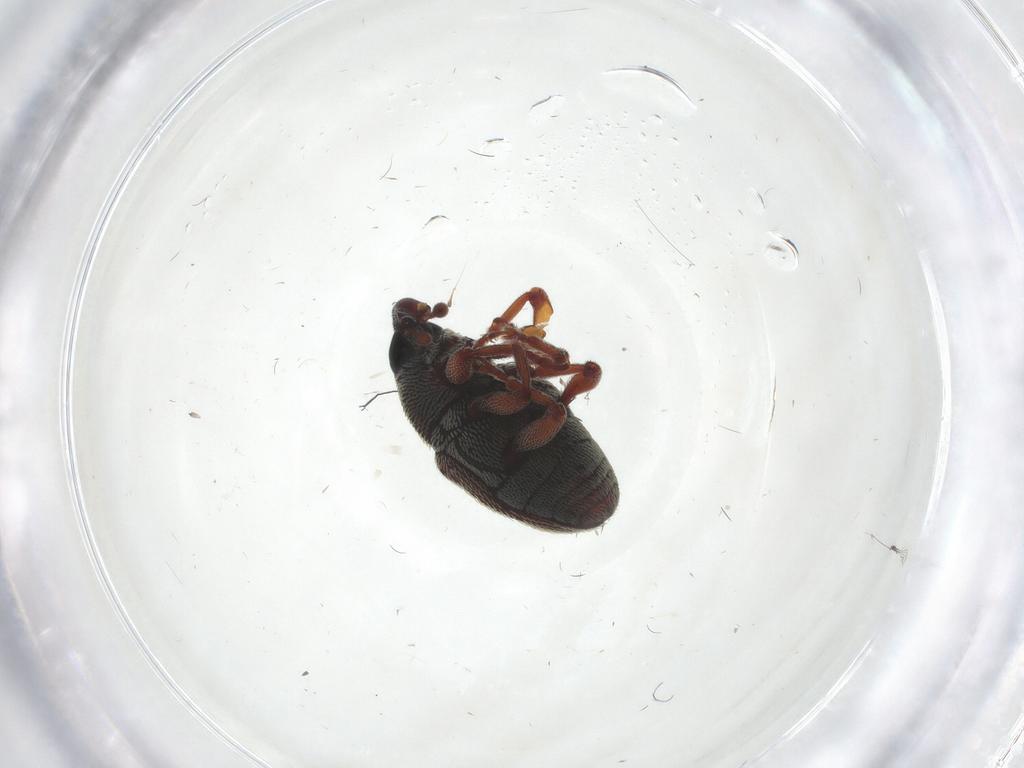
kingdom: Animalia
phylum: Arthropoda
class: Insecta
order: Coleoptera
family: Curculionidae
